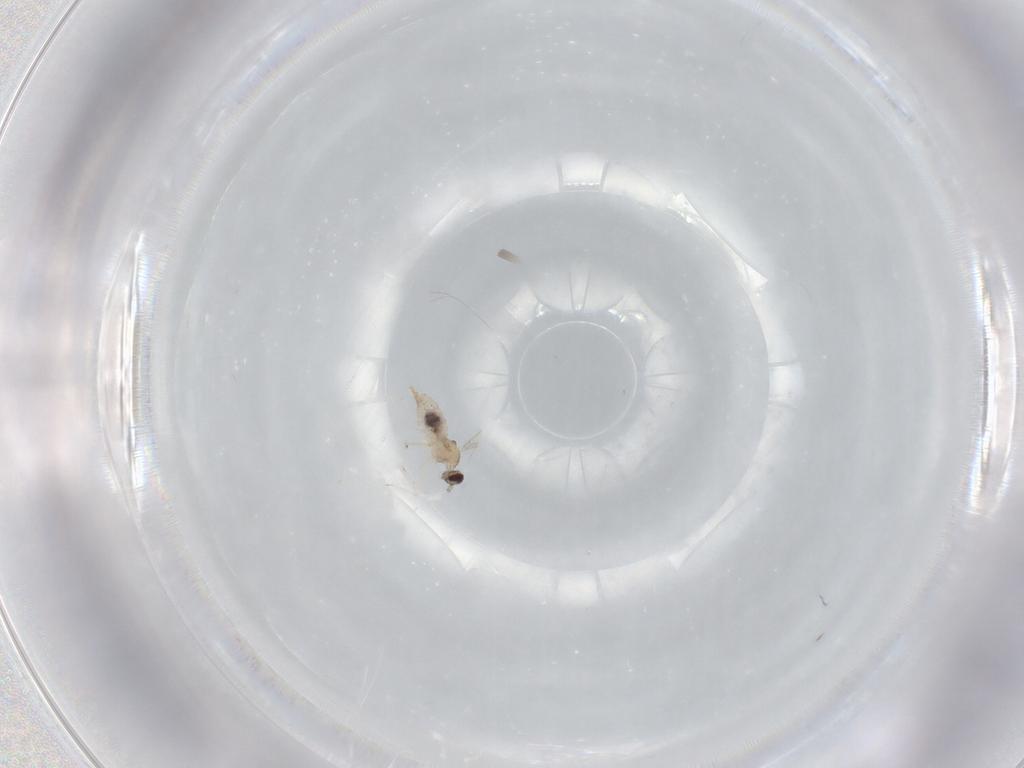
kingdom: Animalia
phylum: Arthropoda
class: Insecta
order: Diptera
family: Cecidomyiidae
